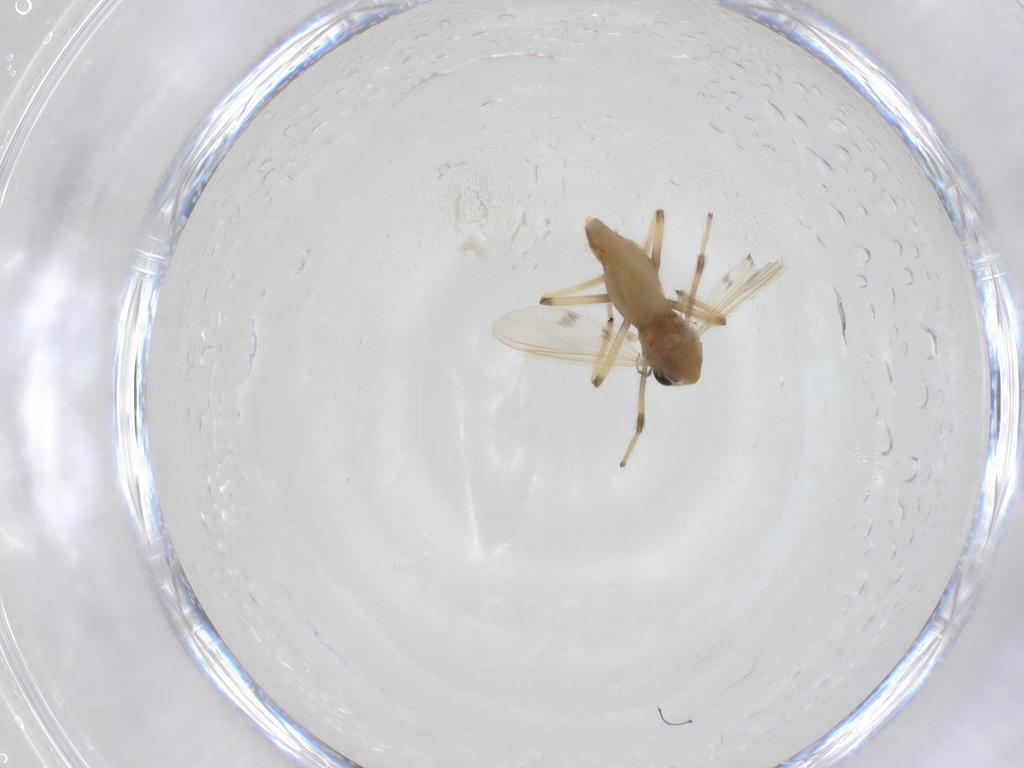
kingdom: Animalia
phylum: Arthropoda
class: Insecta
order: Diptera
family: Chironomidae
